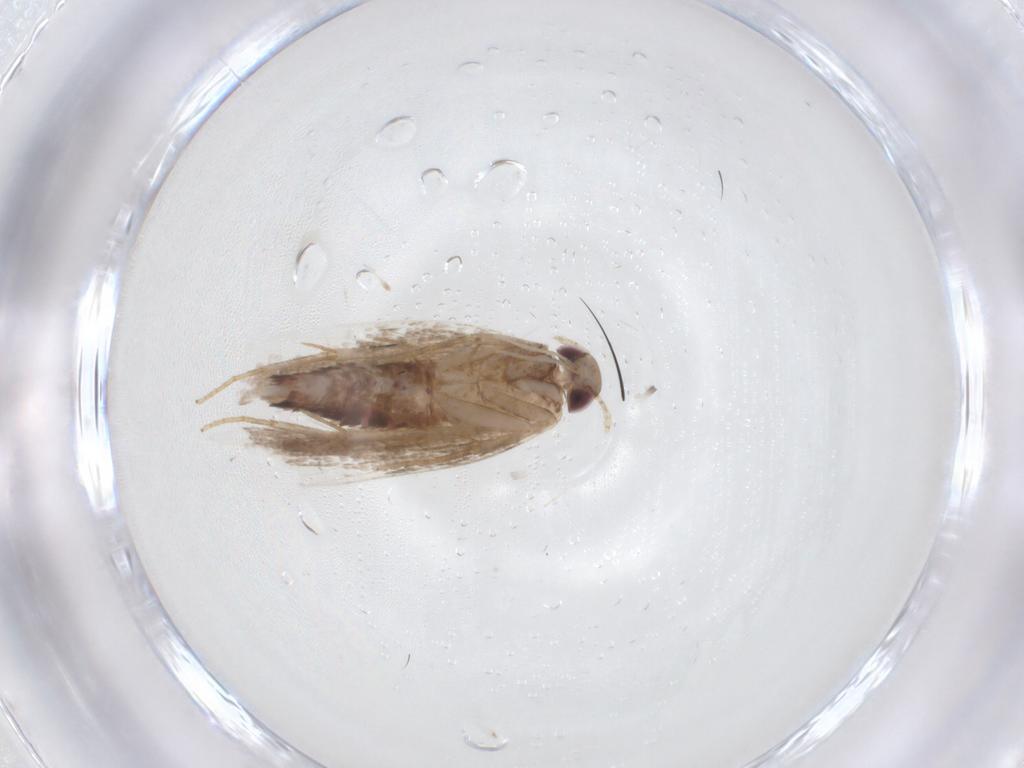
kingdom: Animalia
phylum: Arthropoda
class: Insecta
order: Lepidoptera
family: Gelechiidae
